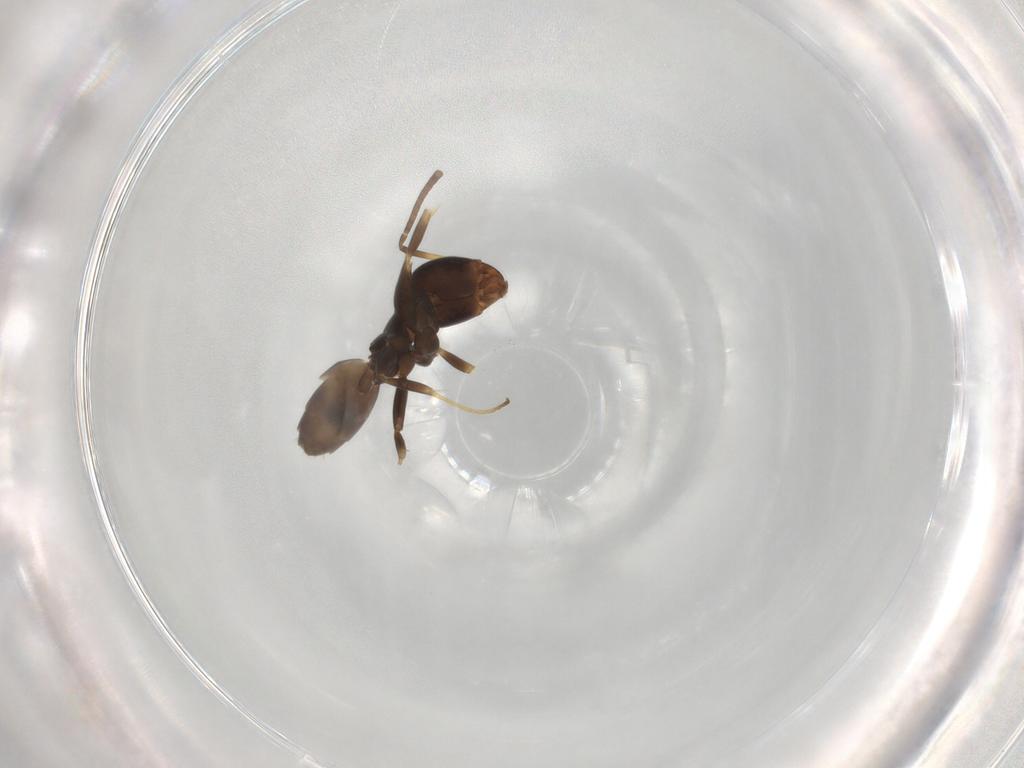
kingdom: Animalia
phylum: Arthropoda
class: Insecta
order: Hymenoptera
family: Formicidae
